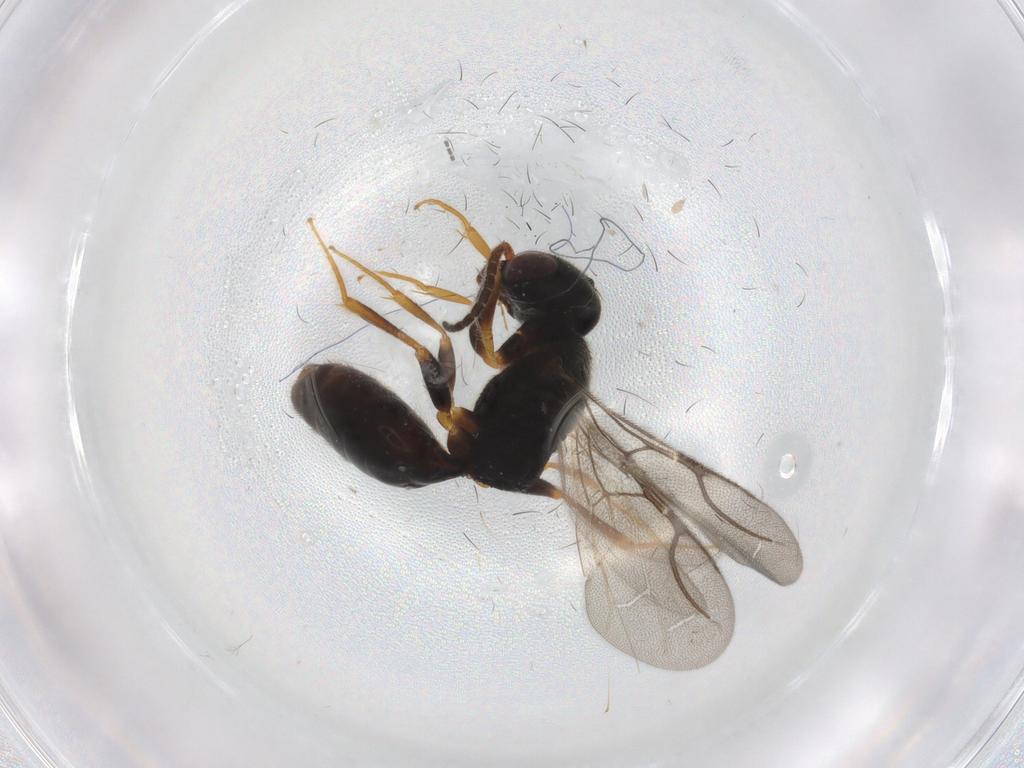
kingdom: Animalia
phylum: Arthropoda
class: Insecta
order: Hymenoptera
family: Bethylidae
